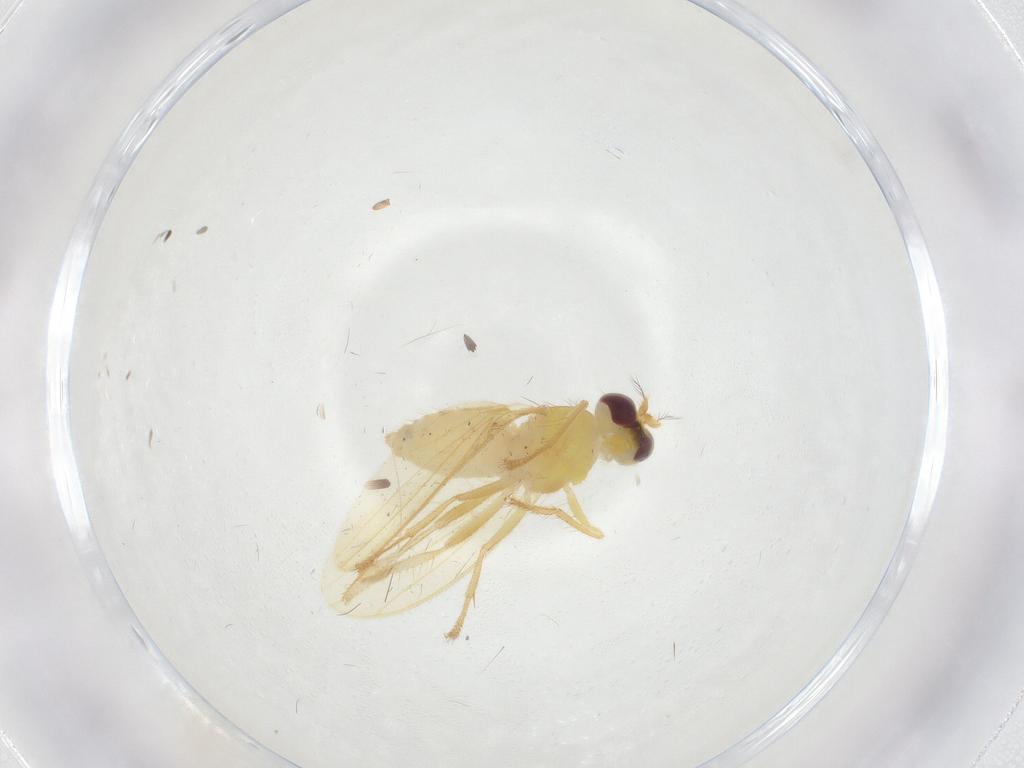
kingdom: Animalia
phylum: Arthropoda
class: Insecta
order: Diptera
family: Periscelididae
